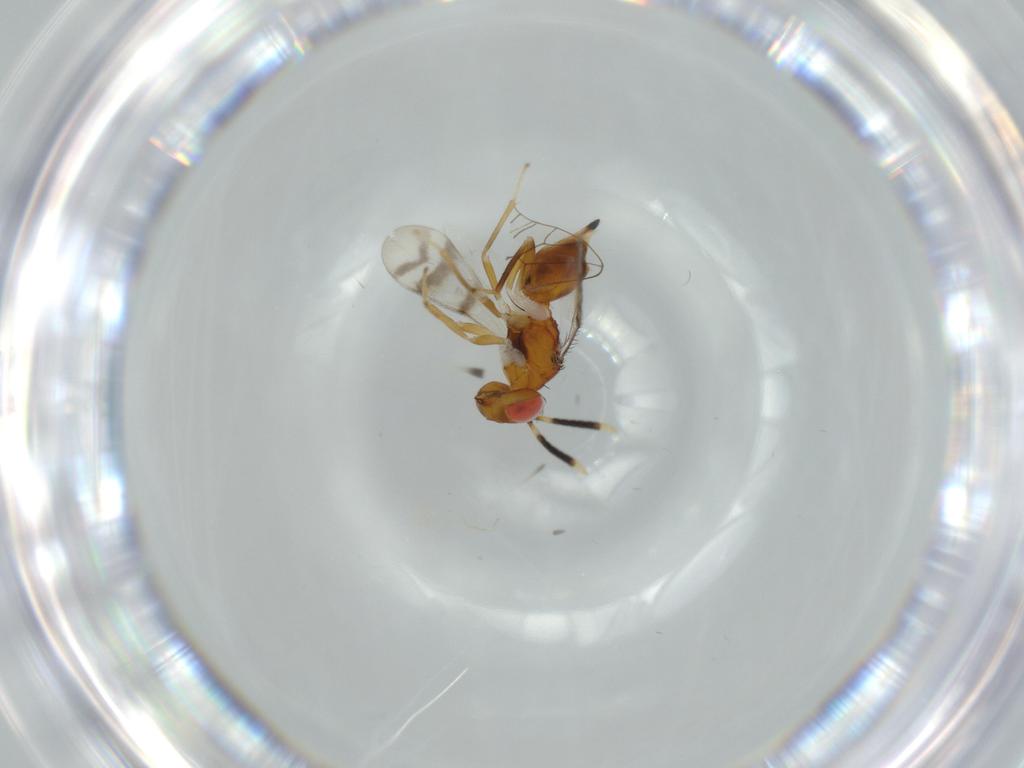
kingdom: Animalia
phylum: Arthropoda
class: Insecta
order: Hymenoptera
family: Diparidae
